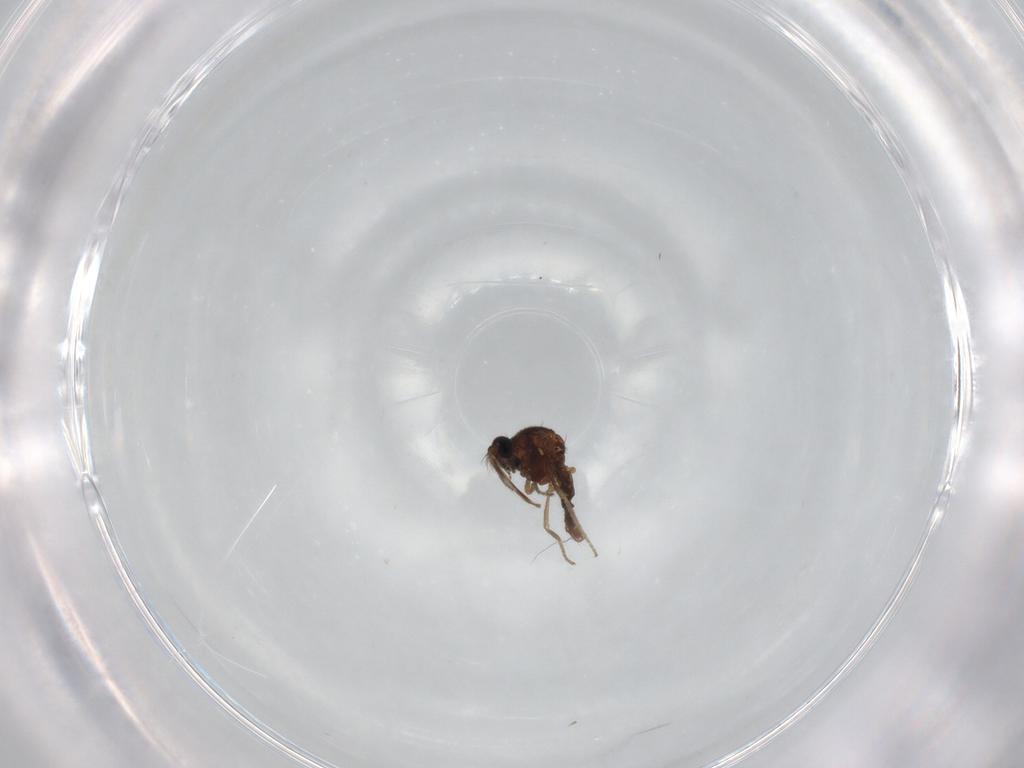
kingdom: Animalia
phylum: Arthropoda
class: Insecta
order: Diptera
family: Ceratopogonidae
